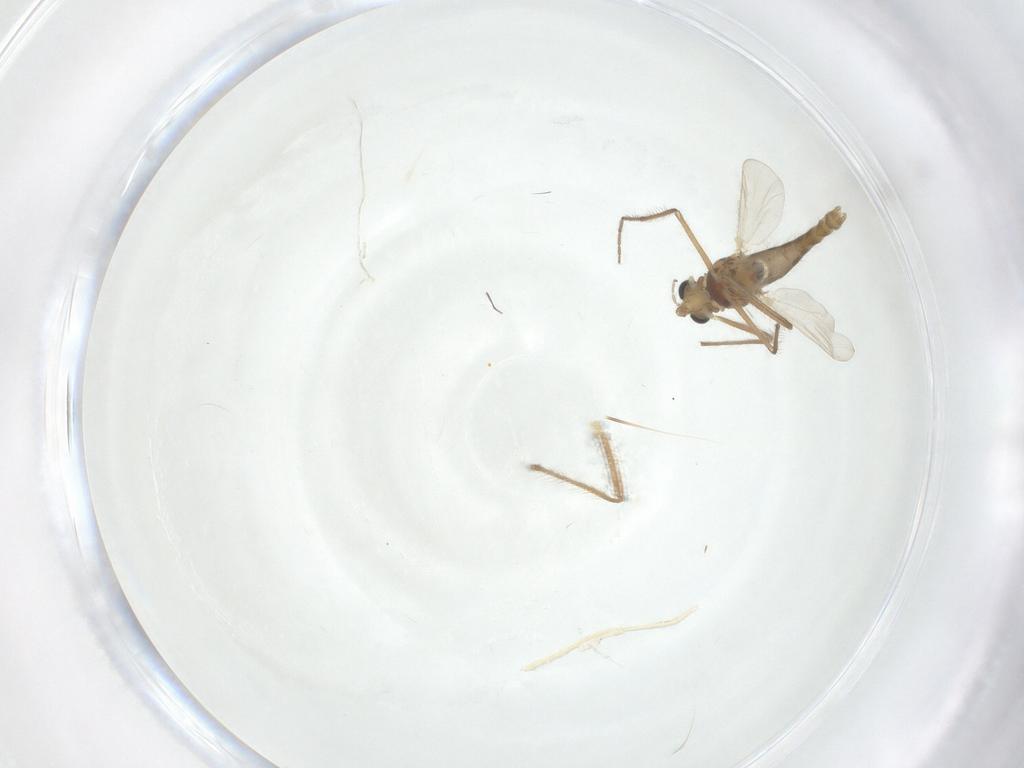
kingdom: Animalia
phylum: Arthropoda
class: Insecta
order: Diptera
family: Chironomidae
